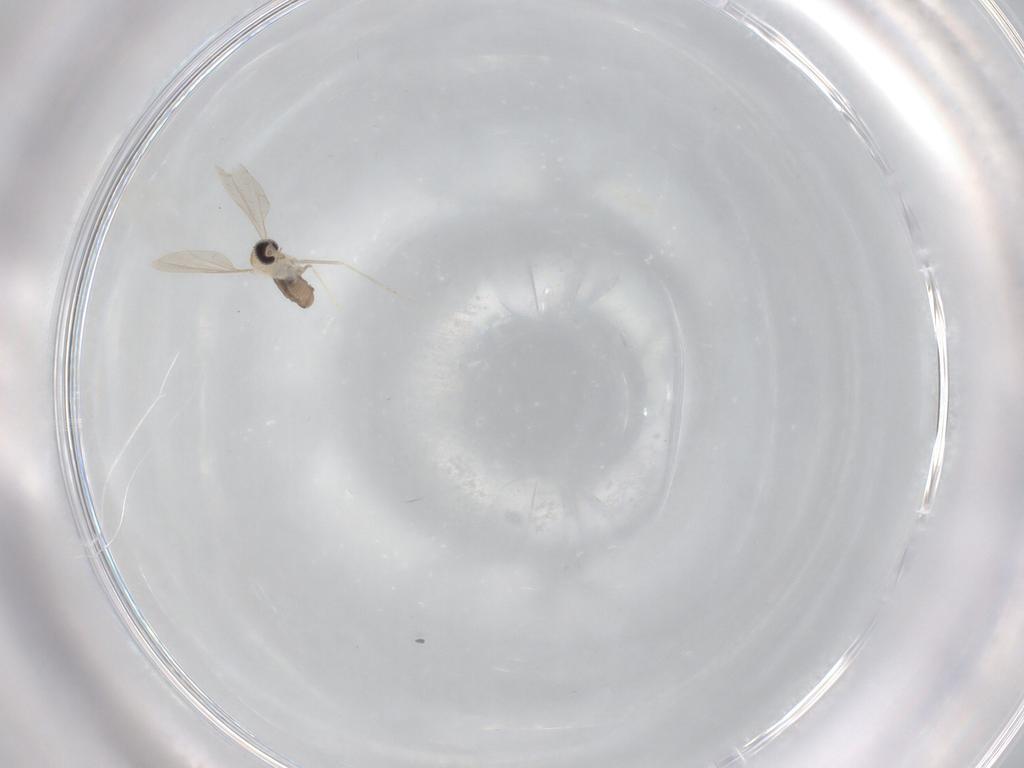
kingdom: Animalia
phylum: Arthropoda
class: Insecta
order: Diptera
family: Cecidomyiidae
